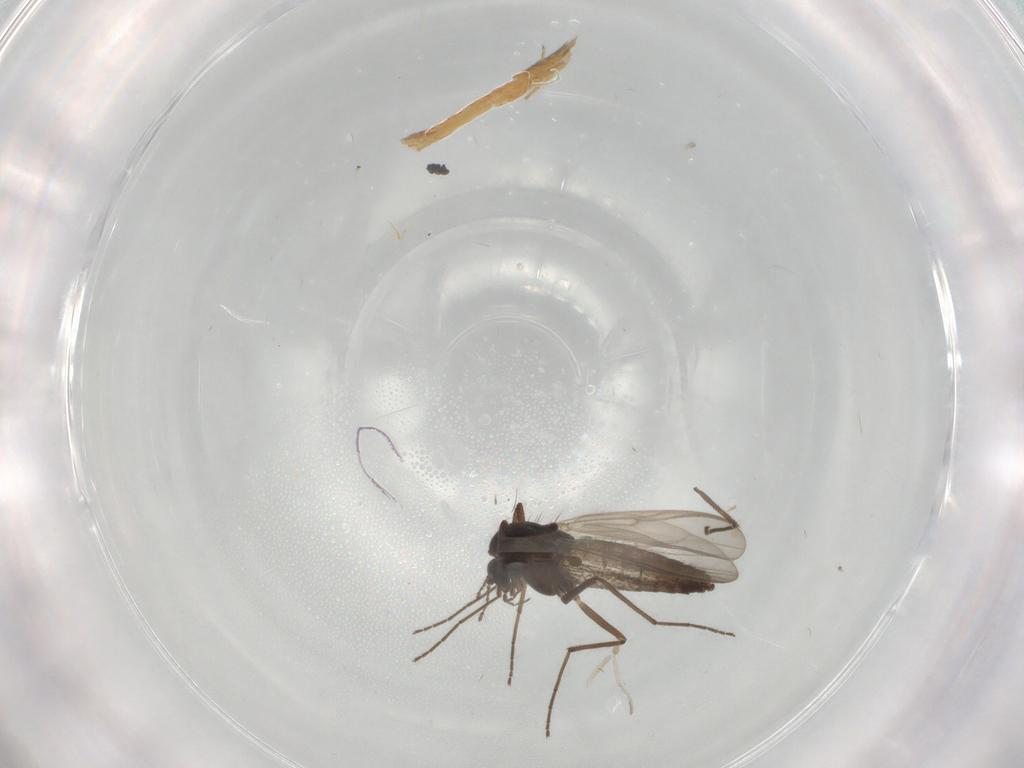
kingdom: Animalia
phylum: Arthropoda
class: Insecta
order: Diptera
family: Chironomidae
